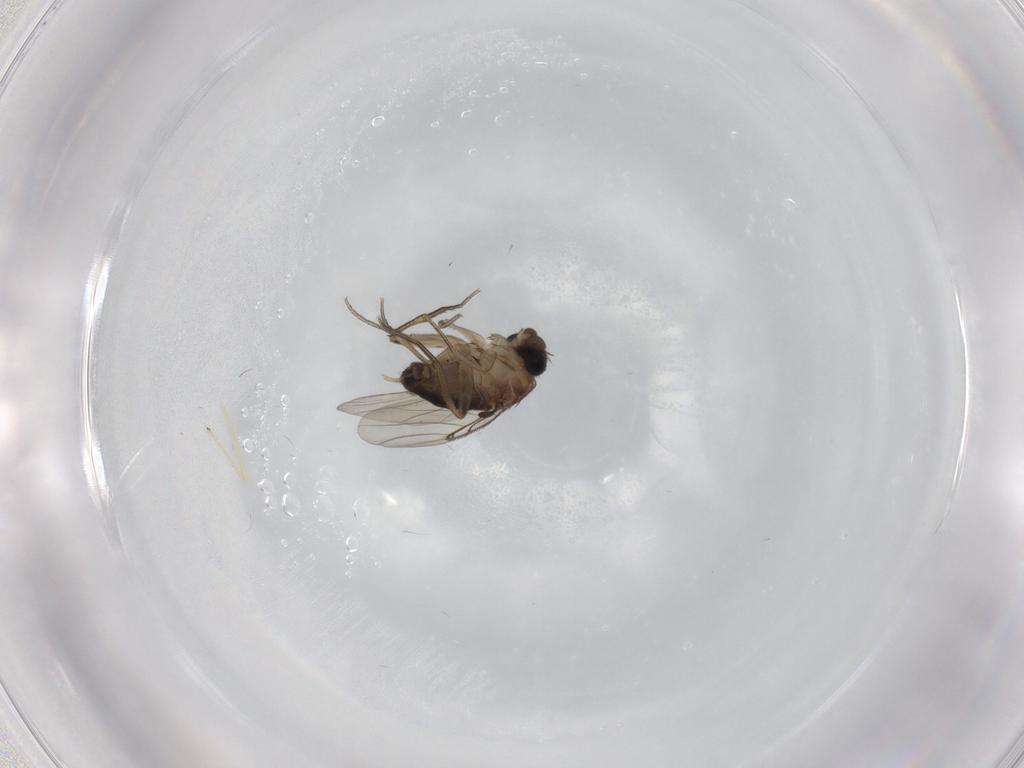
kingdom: Animalia
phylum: Arthropoda
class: Insecta
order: Diptera
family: Phoridae
